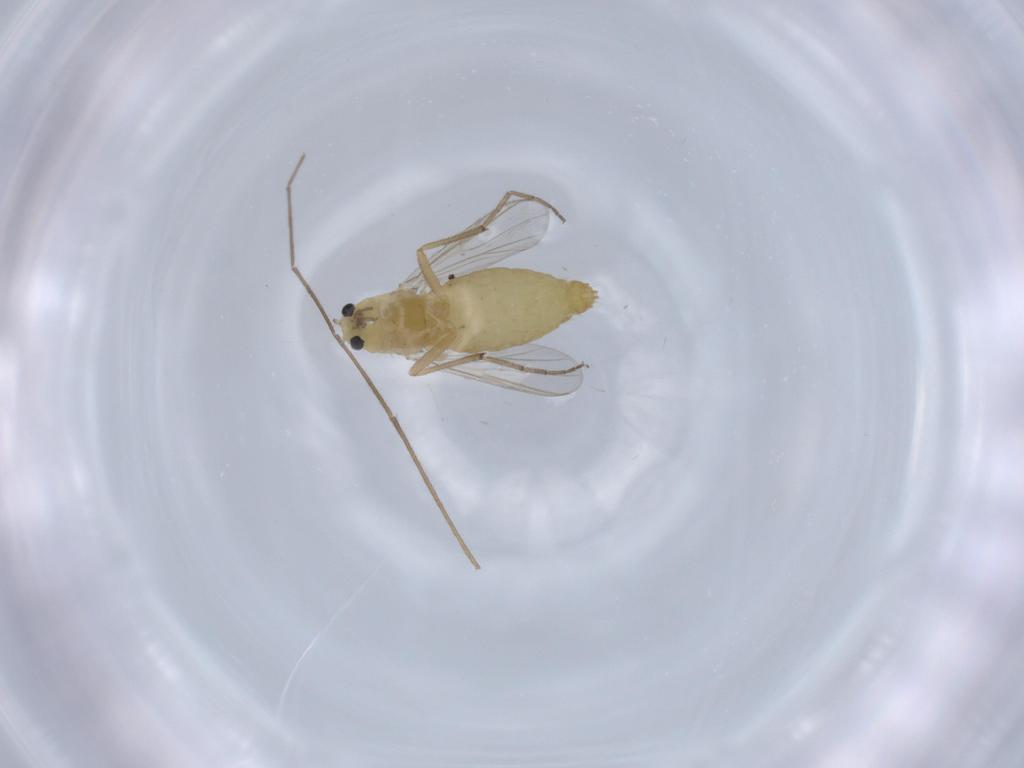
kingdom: Animalia
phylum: Arthropoda
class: Insecta
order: Diptera
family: Chironomidae
